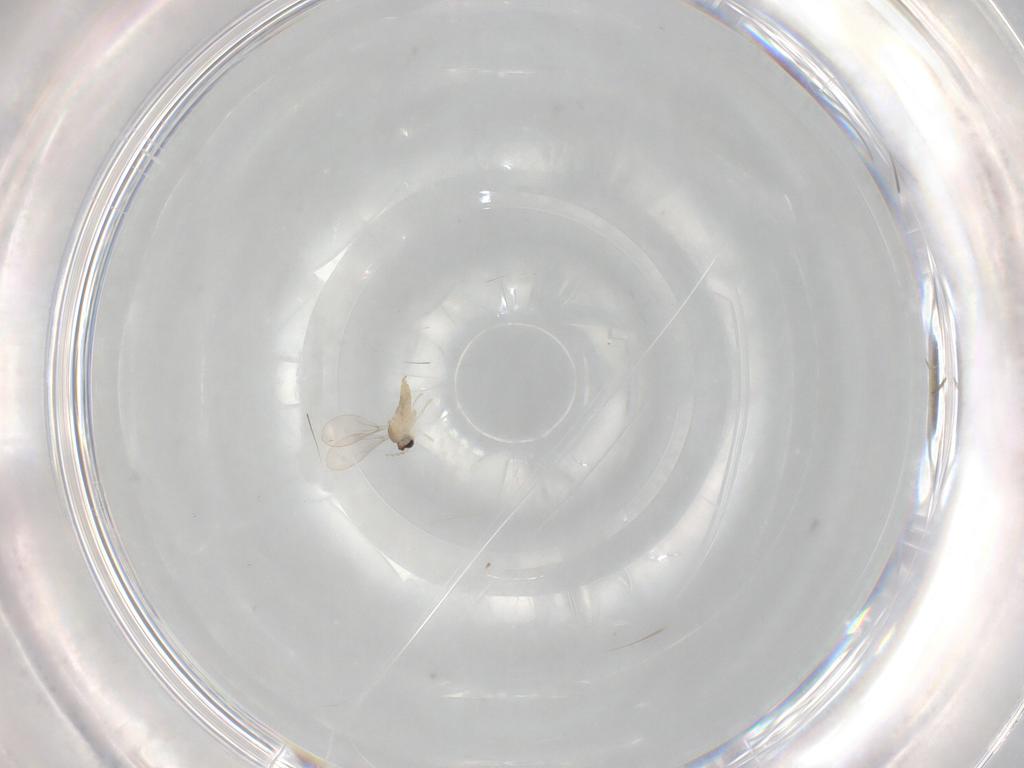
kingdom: Animalia
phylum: Arthropoda
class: Insecta
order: Diptera
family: Cecidomyiidae
